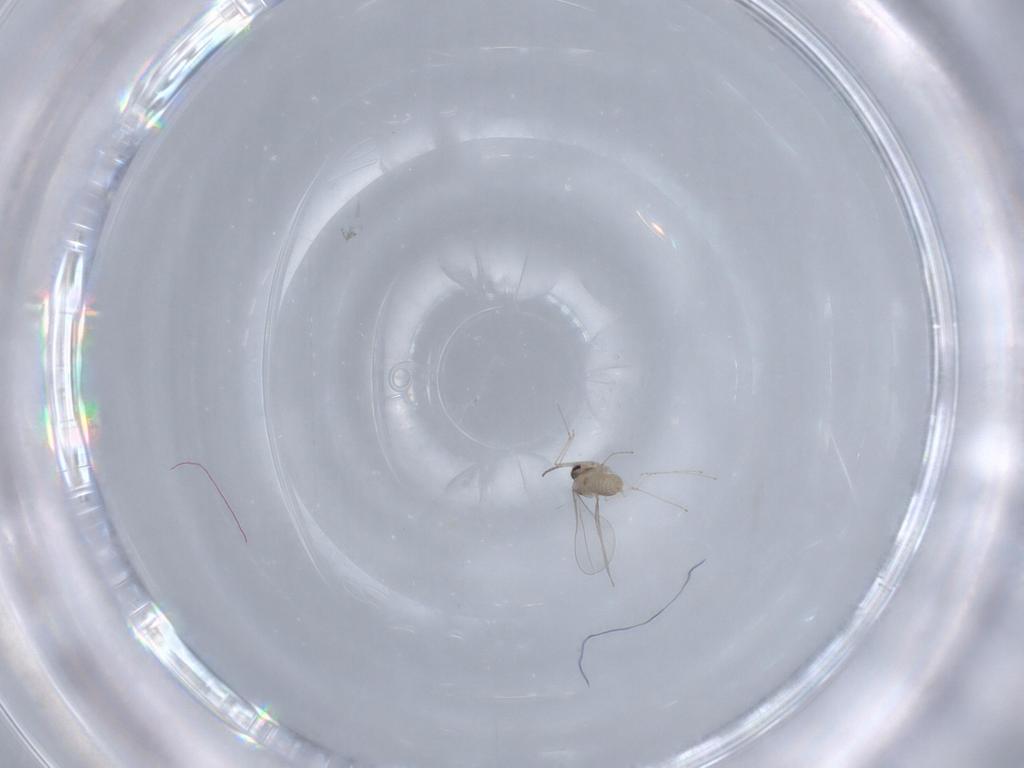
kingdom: Animalia
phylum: Arthropoda
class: Insecta
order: Diptera
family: Cecidomyiidae
